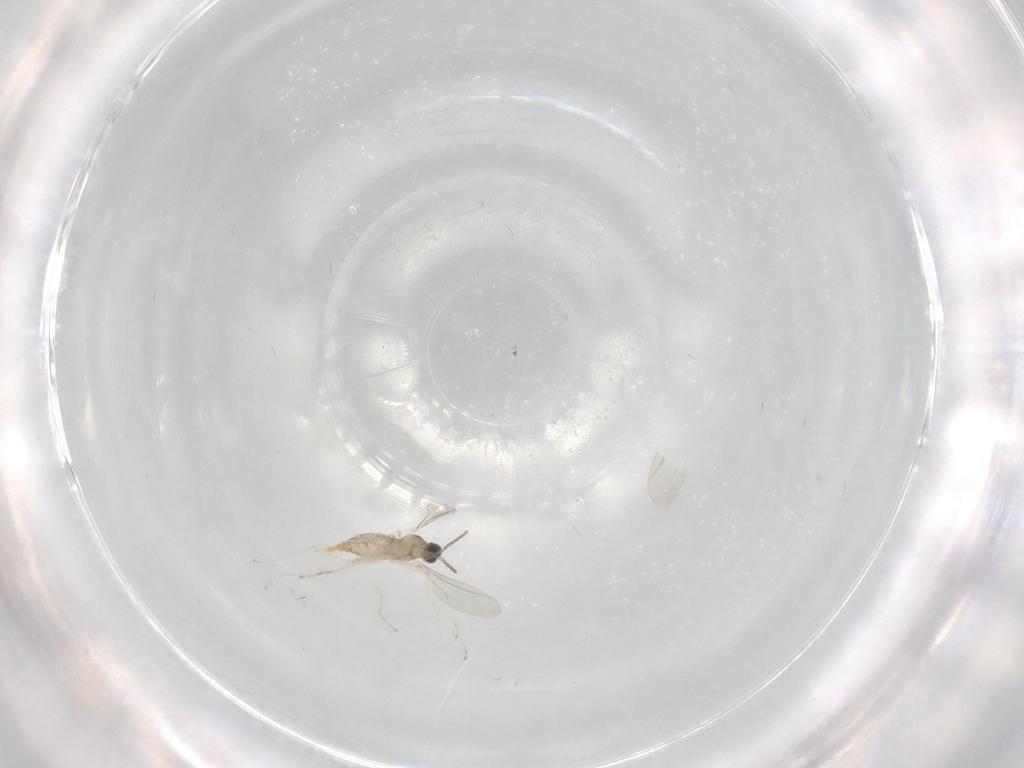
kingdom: Animalia
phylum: Arthropoda
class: Insecta
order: Diptera
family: Cecidomyiidae
